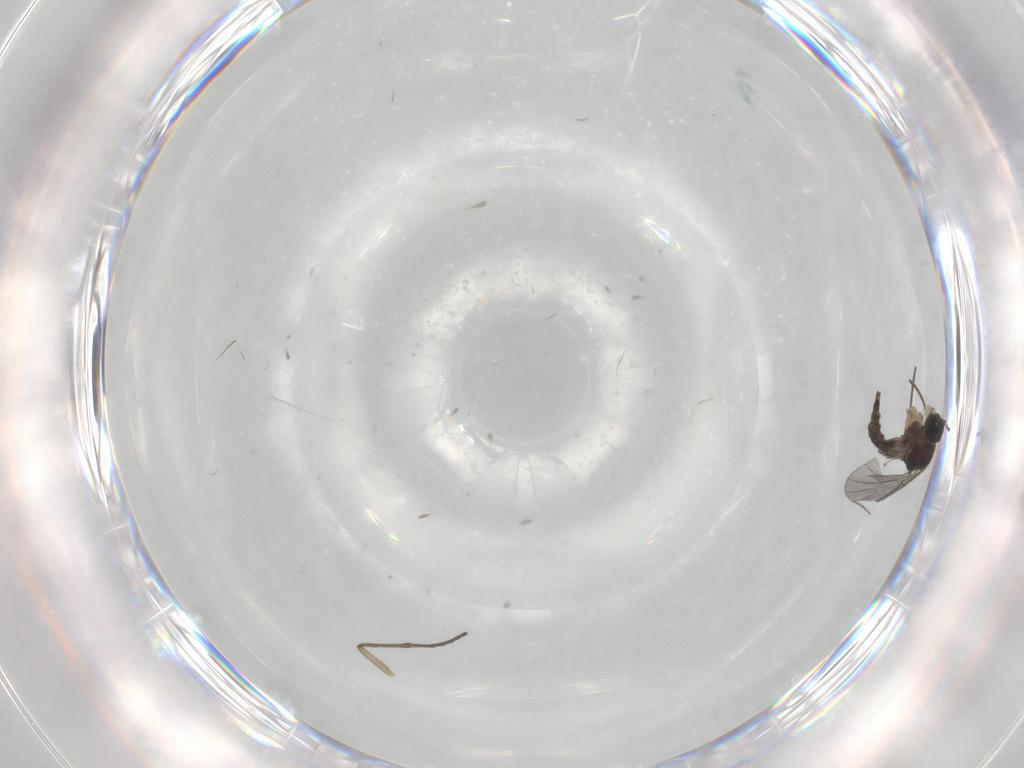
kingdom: Animalia
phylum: Arthropoda
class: Insecta
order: Diptera
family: Sciaridae
